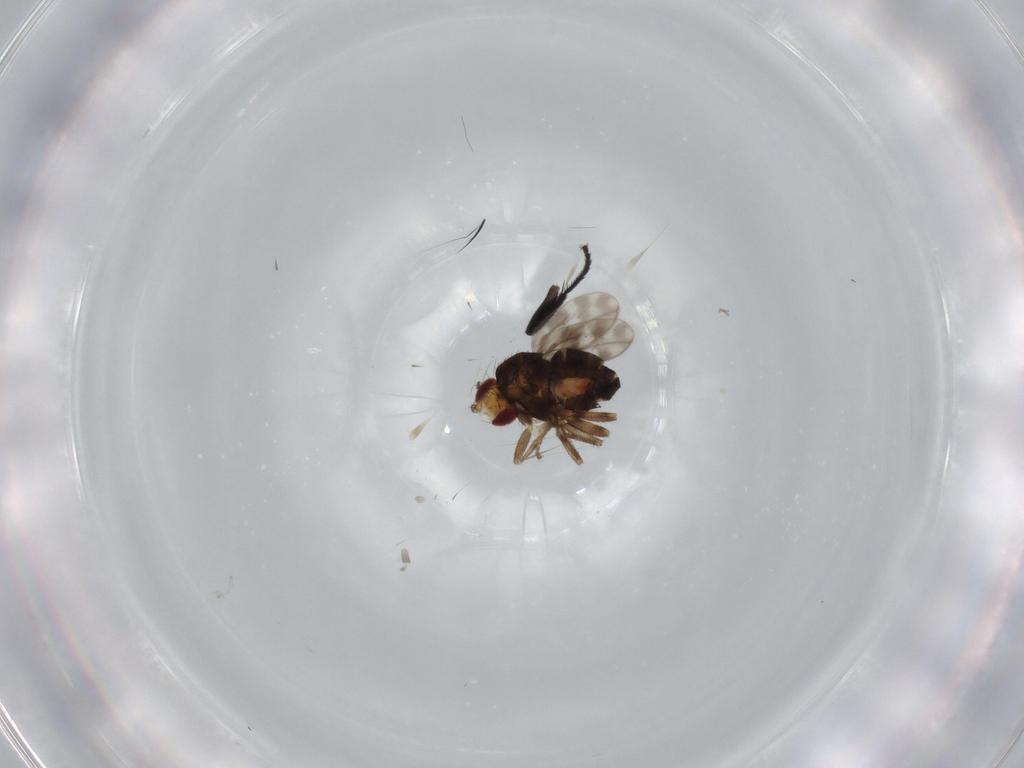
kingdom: Animalia
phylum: Arthropoda
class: Insecta
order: Diptera
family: Sphaeroceridae
